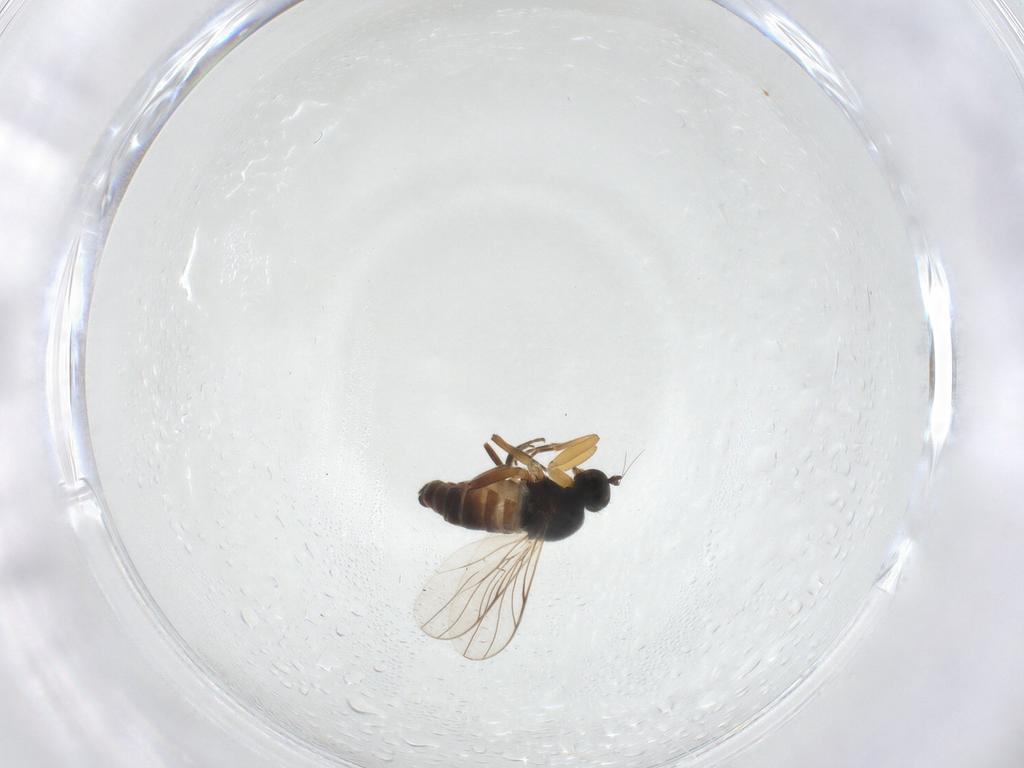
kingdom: Animalia
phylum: Arthropoda
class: Insecta
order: Diptera
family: Hybotidae
